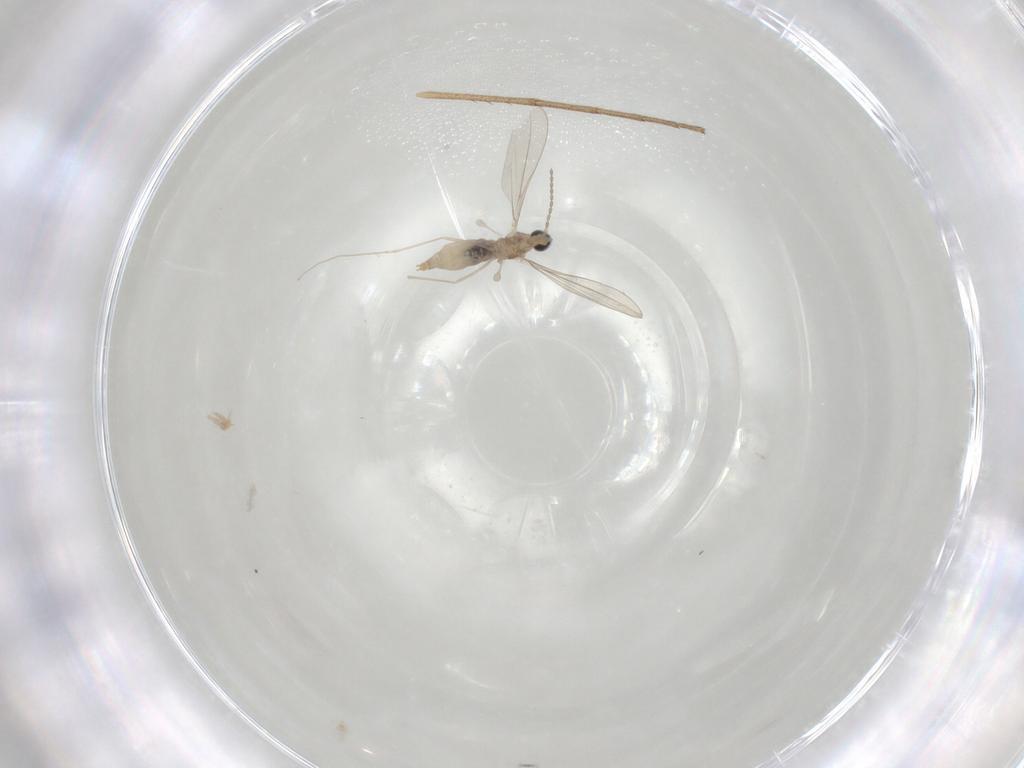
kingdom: Animalia
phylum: Arthropoda
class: Insecta
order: Diptera
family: Mycetophilidae
